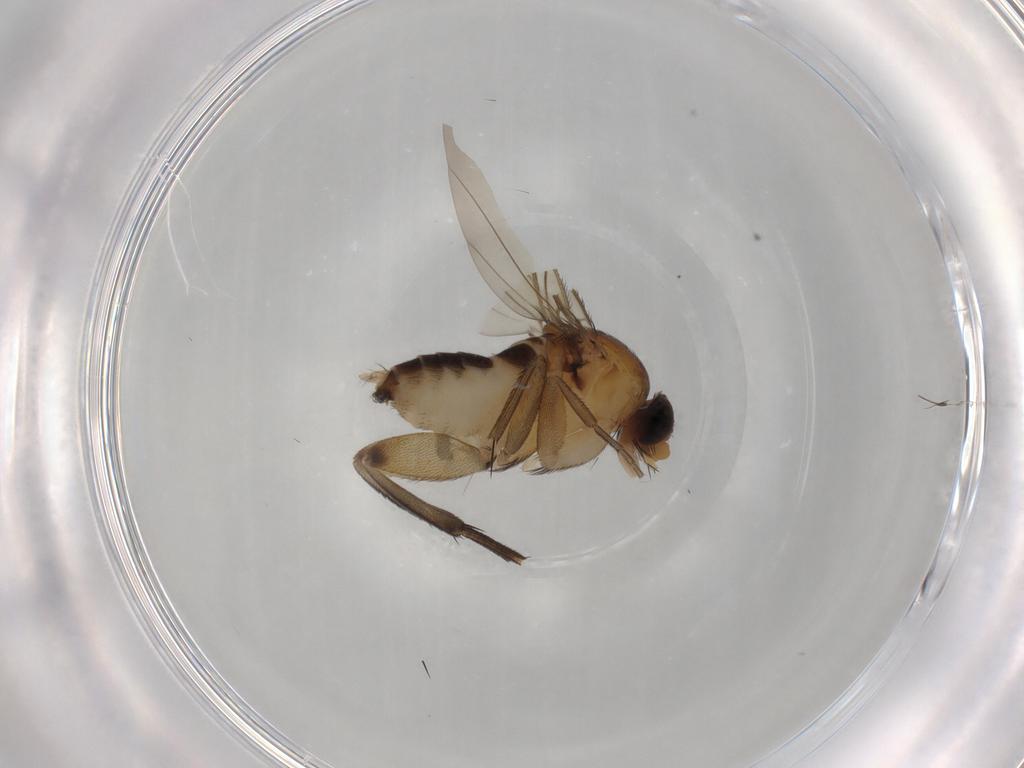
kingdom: Animalia
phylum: Arthropoda
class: Insecta
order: Diptera
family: Phoridae
